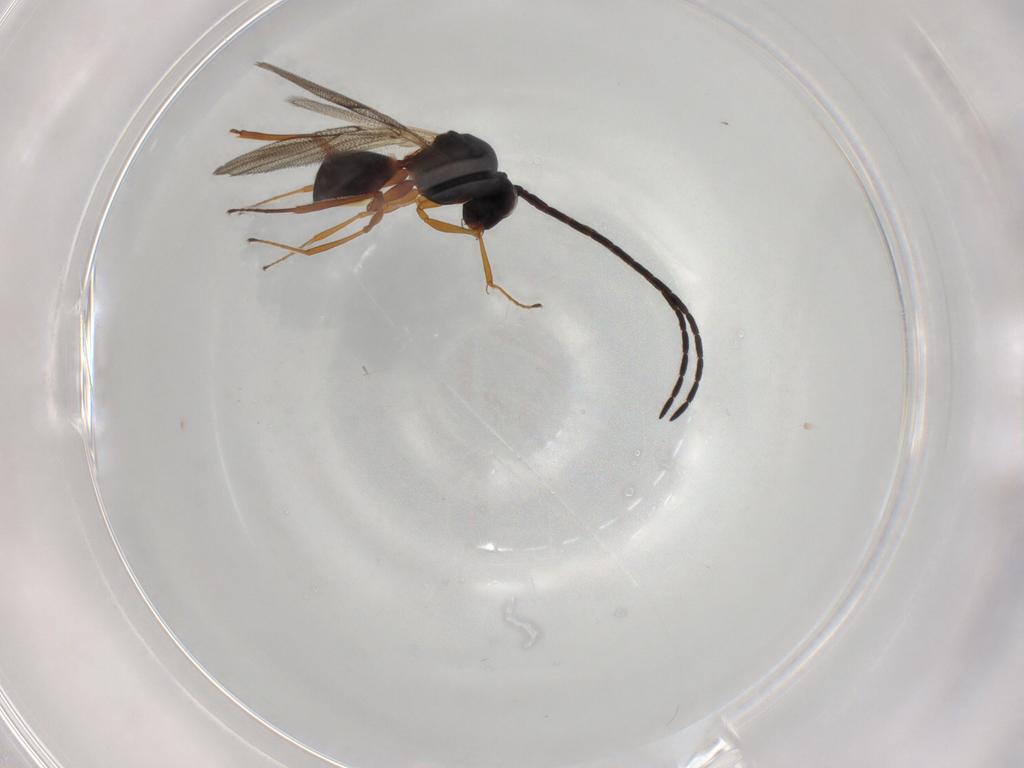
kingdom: Animalia
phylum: Arthropoda
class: Insecta
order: Hymenoptera
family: Figitidae
